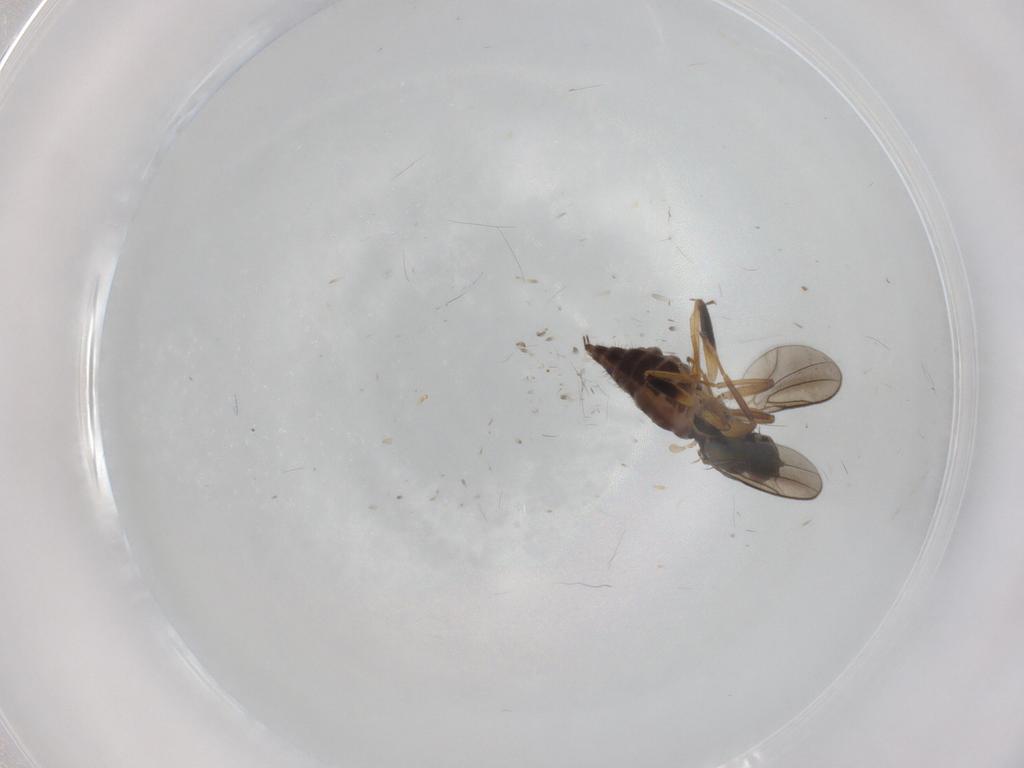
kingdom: Animalia
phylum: Arthropoda
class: Insecta
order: Diptera
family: Hybotidae
